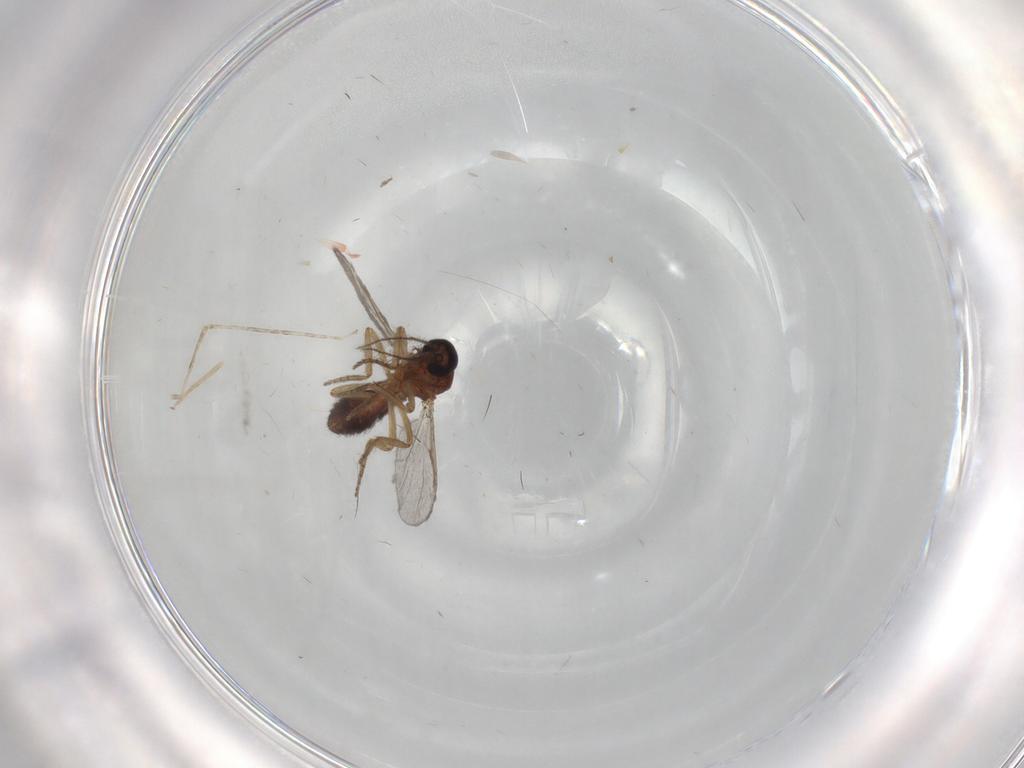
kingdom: Animalia
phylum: Arthropoda
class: Insecta
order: Diptera
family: Ceratopogonidae
